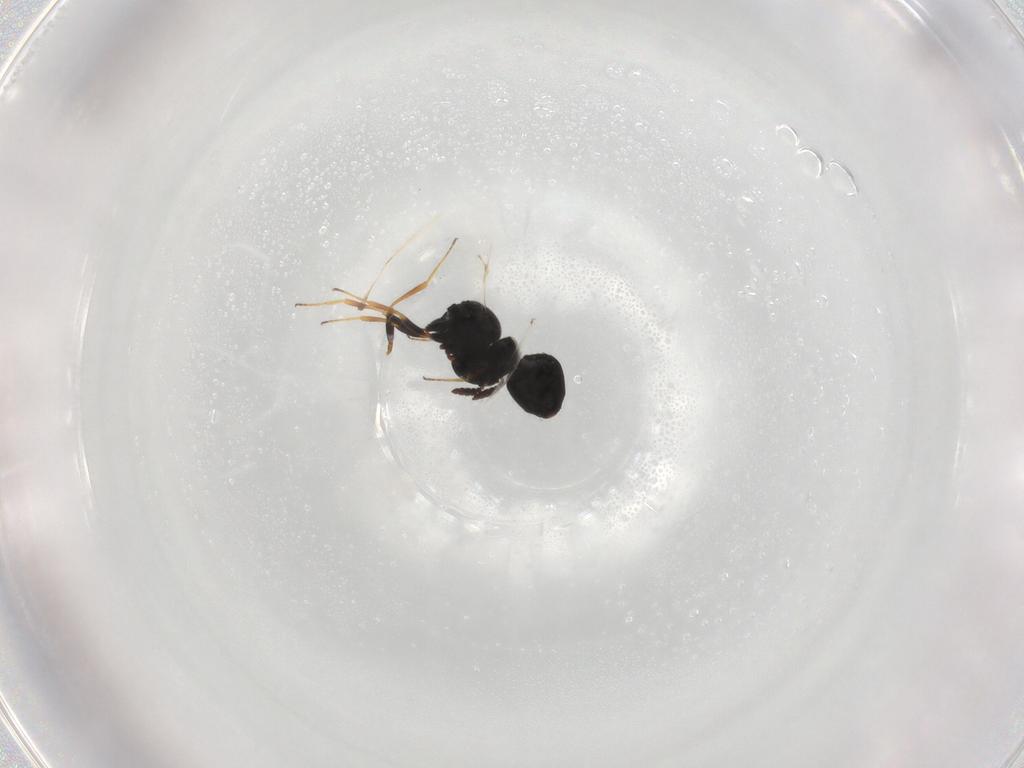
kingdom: Animalia
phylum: Arthropoda
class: Insecta
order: Hymenoptera
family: Scelionidae
